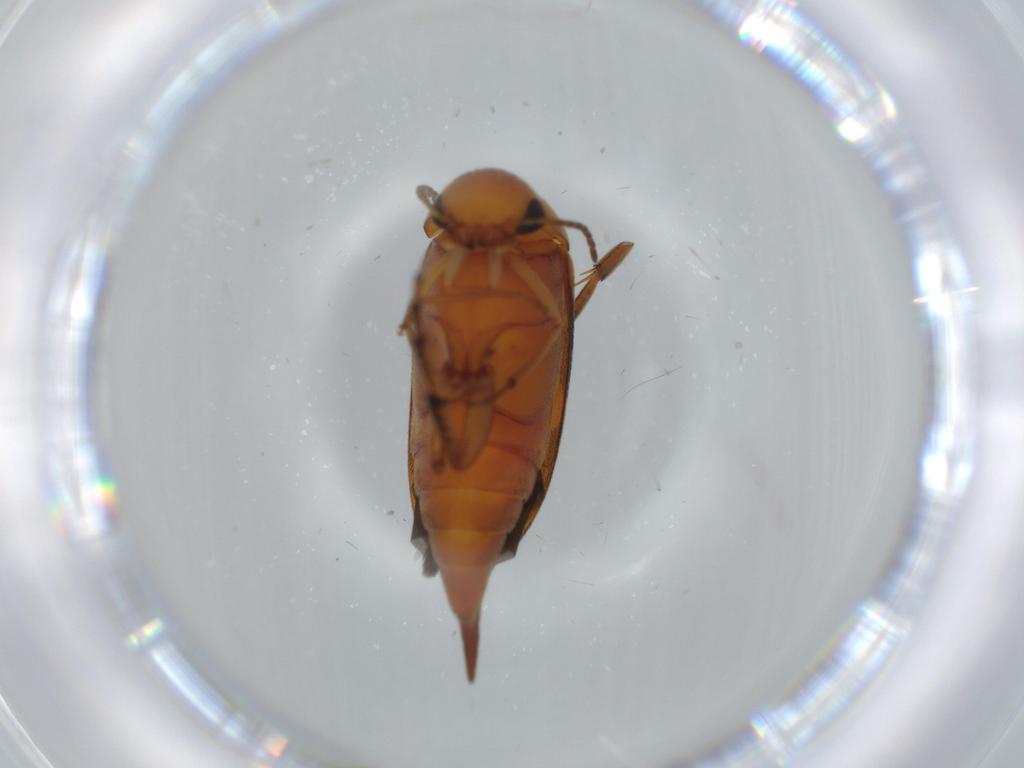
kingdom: Animalia
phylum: Arthropoda
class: Insecta
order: Coleoptera
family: Mordellidae
